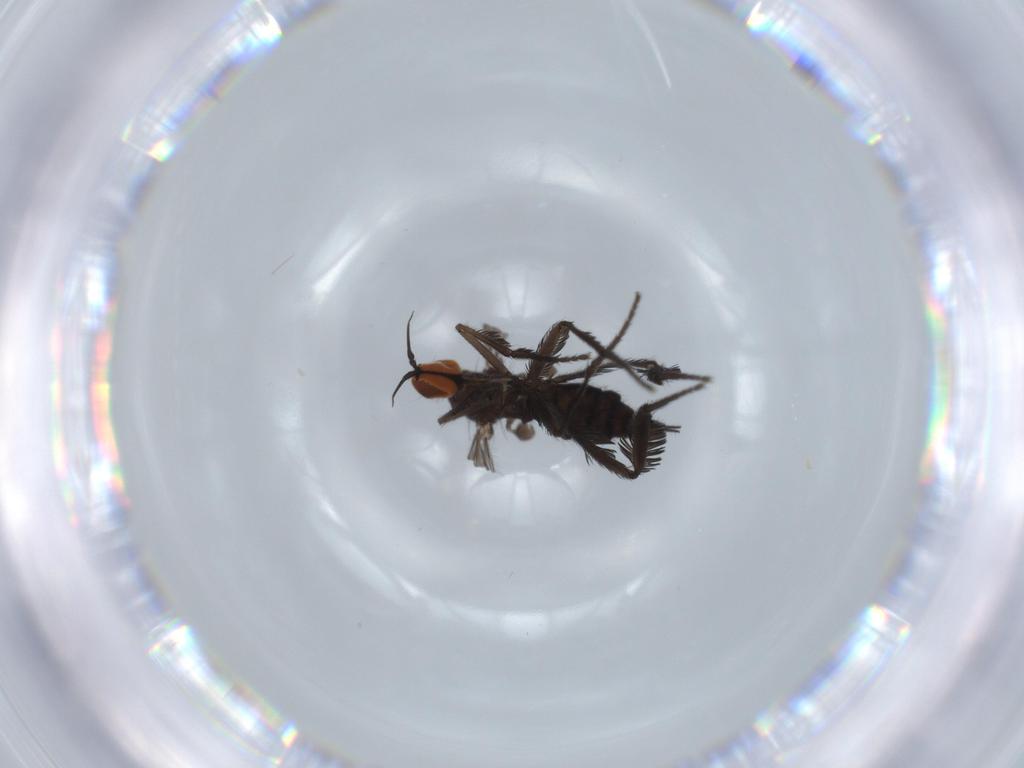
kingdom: Animalia
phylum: Arthropoda
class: Insecta
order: Diptera
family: Empididae
